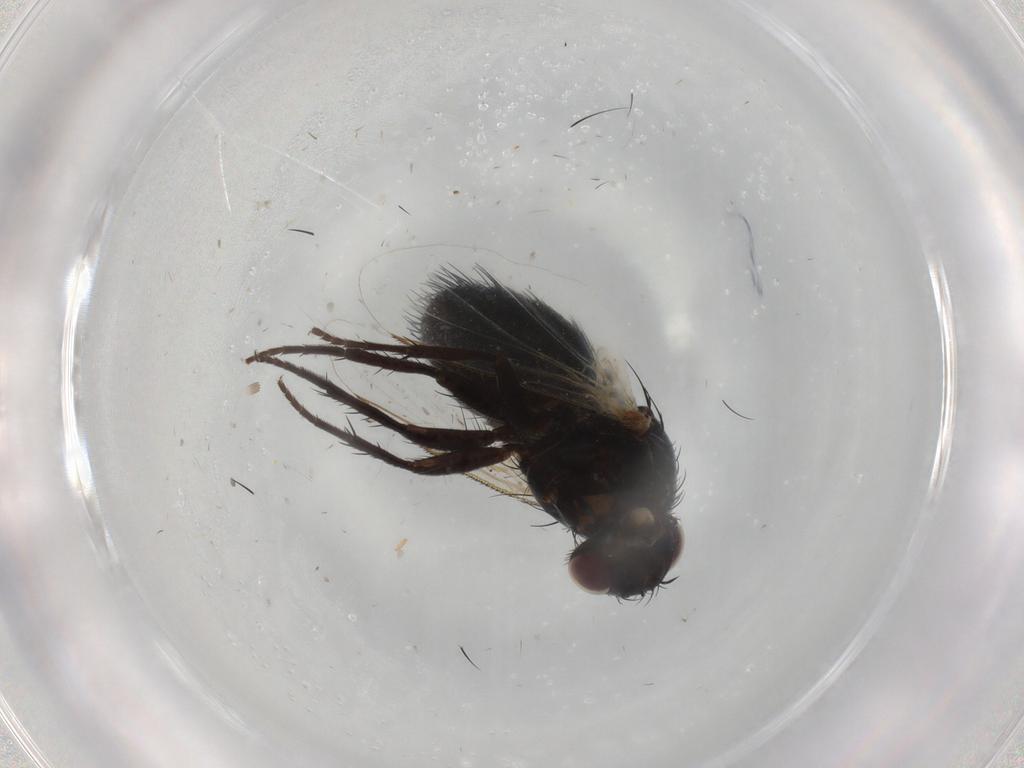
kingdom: Animalia
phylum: Arthropoda
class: Insecta
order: Diptera
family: Tachinidae
